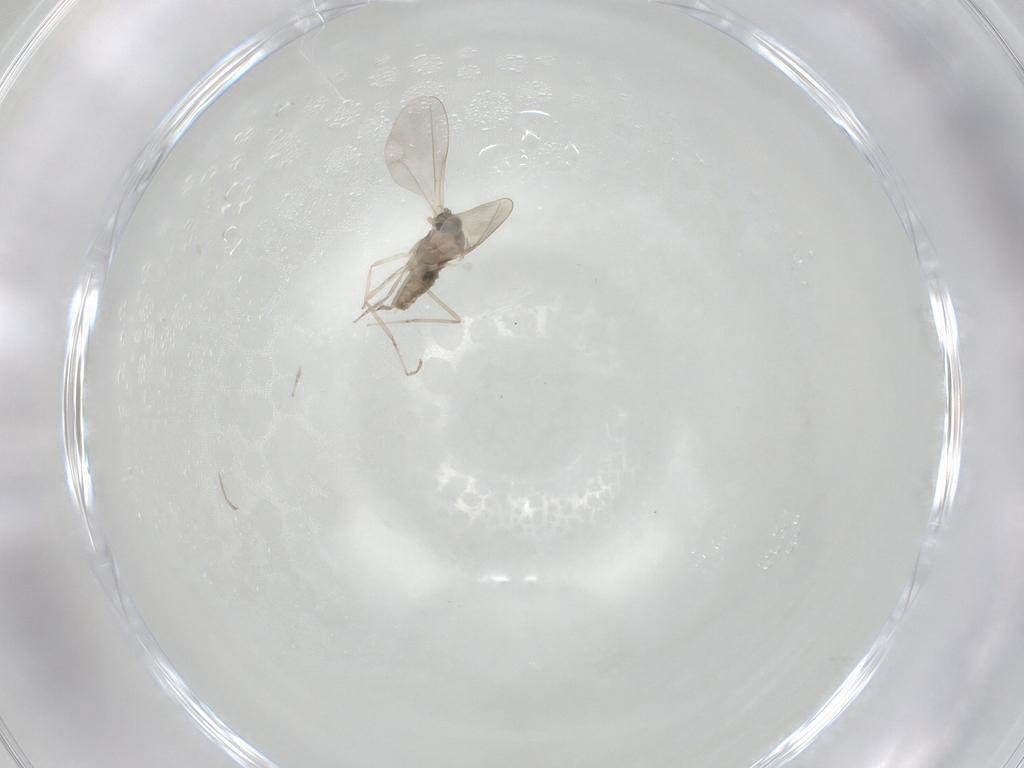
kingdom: Animalia
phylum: Arthropoda
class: Insecta
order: Diptera
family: Cecidomyiidae
